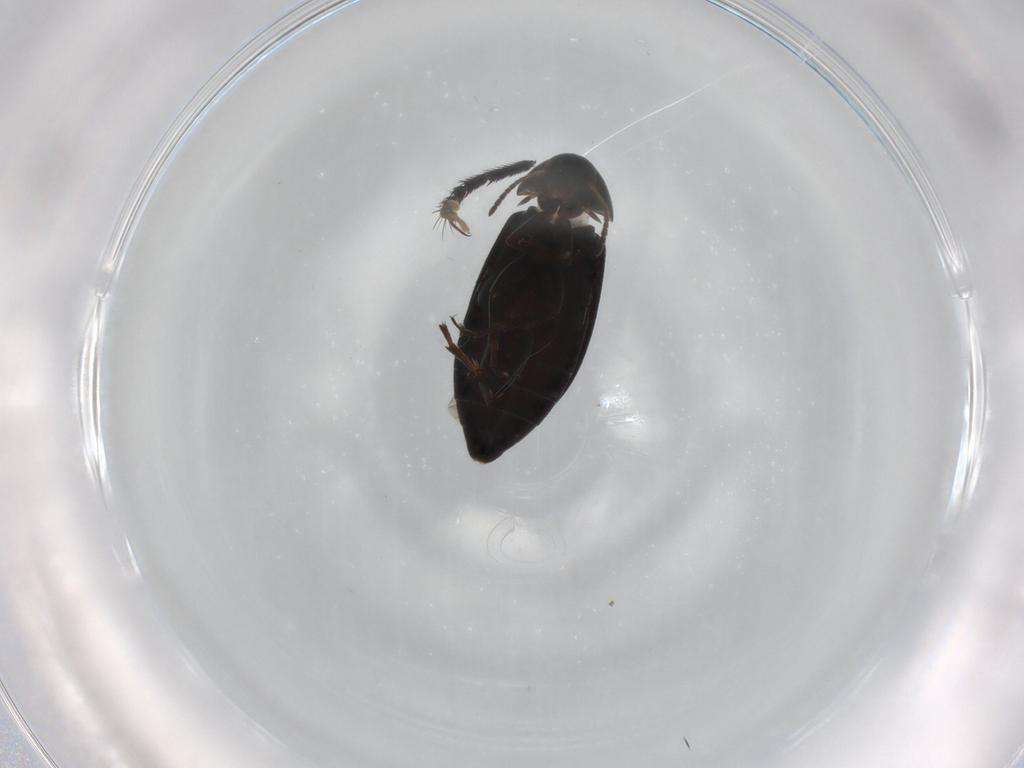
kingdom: Animalia
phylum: Arthropoda
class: Insecta
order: Coleoptera
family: Scraptiidae
